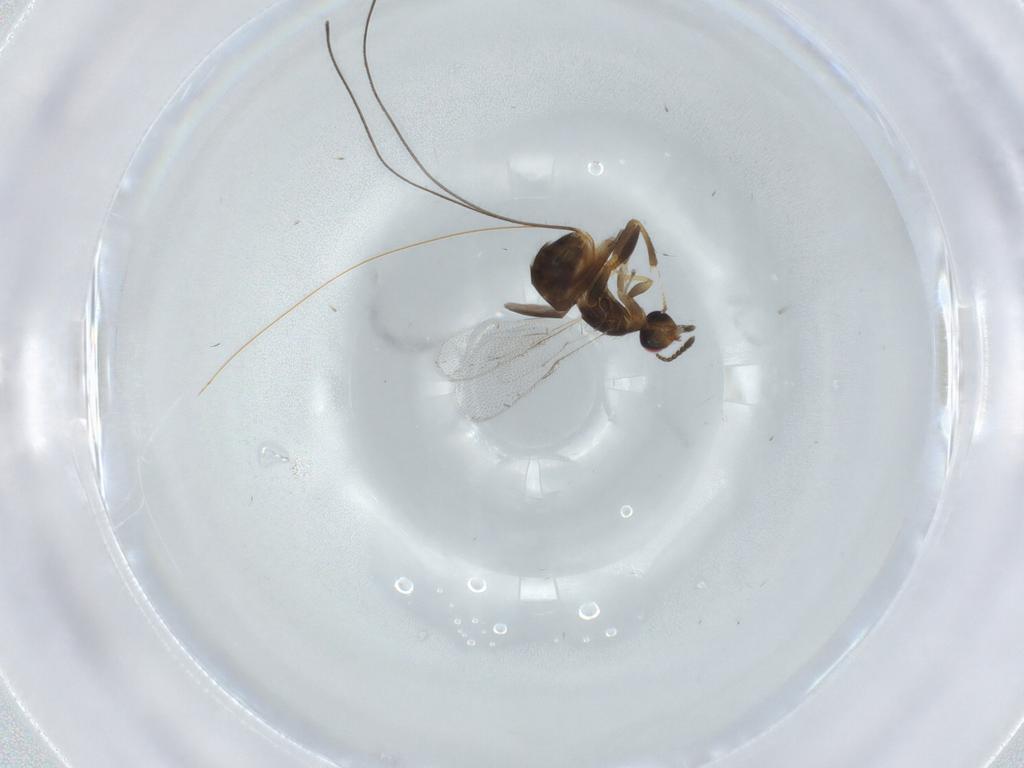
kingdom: Animalia
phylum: Arthropoda
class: Insecta
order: Hymenoptera
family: Torymidae
